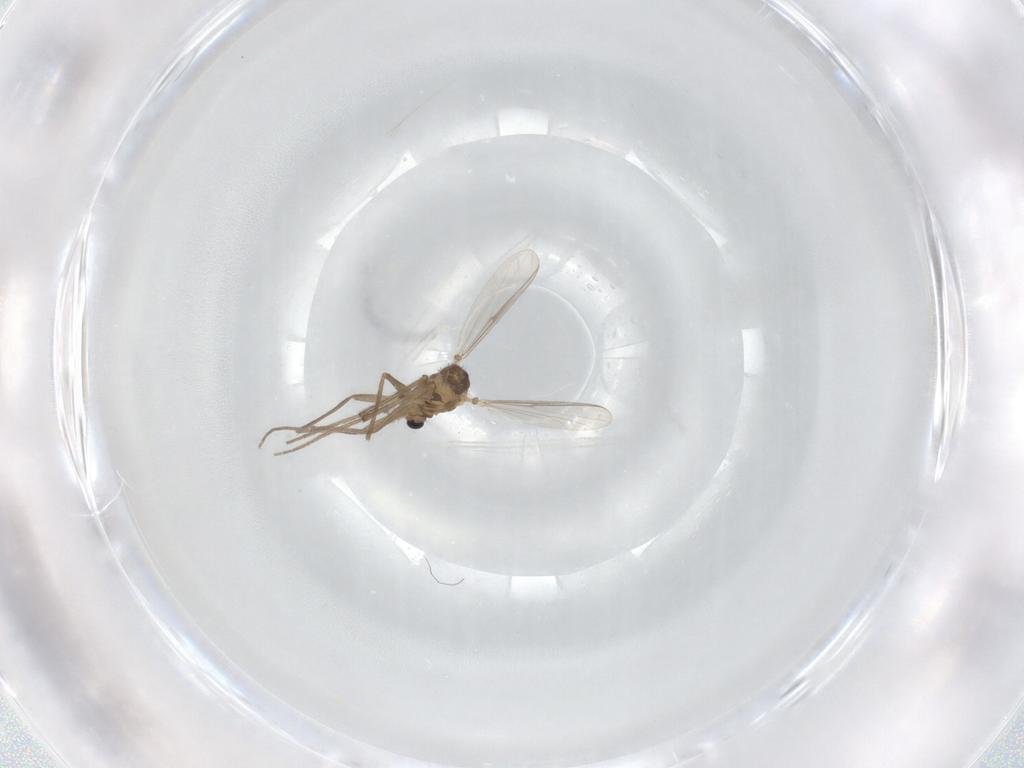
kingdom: Animalia
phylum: Arthropoda
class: Insecta
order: Diptera
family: Chironomidae
